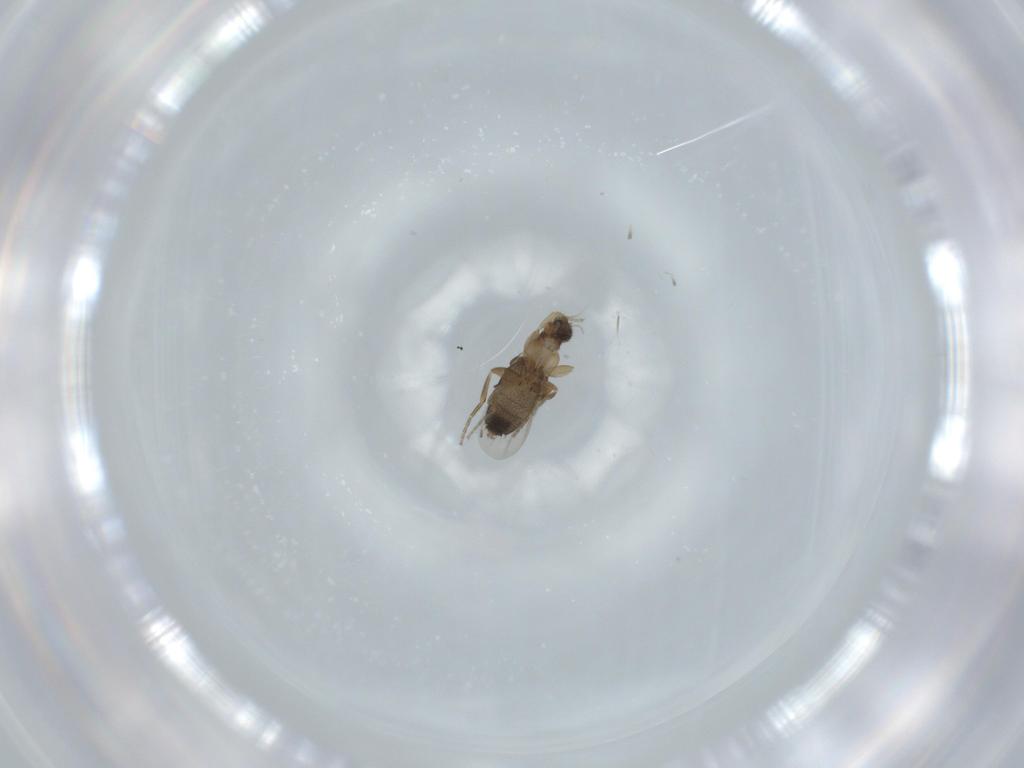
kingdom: Animalia
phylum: Arthropoda
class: Insecta
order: Diptera
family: Phoridae
